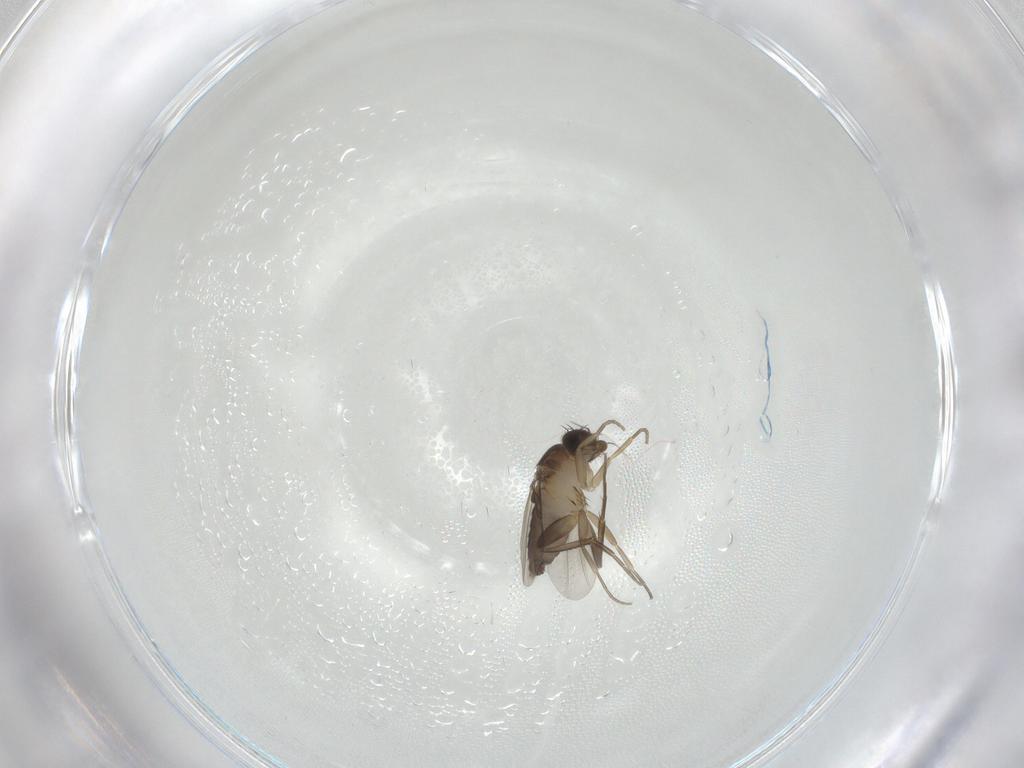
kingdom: Animalia
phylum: Arthropoda
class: Insecta
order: Diptera
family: Phoridae
